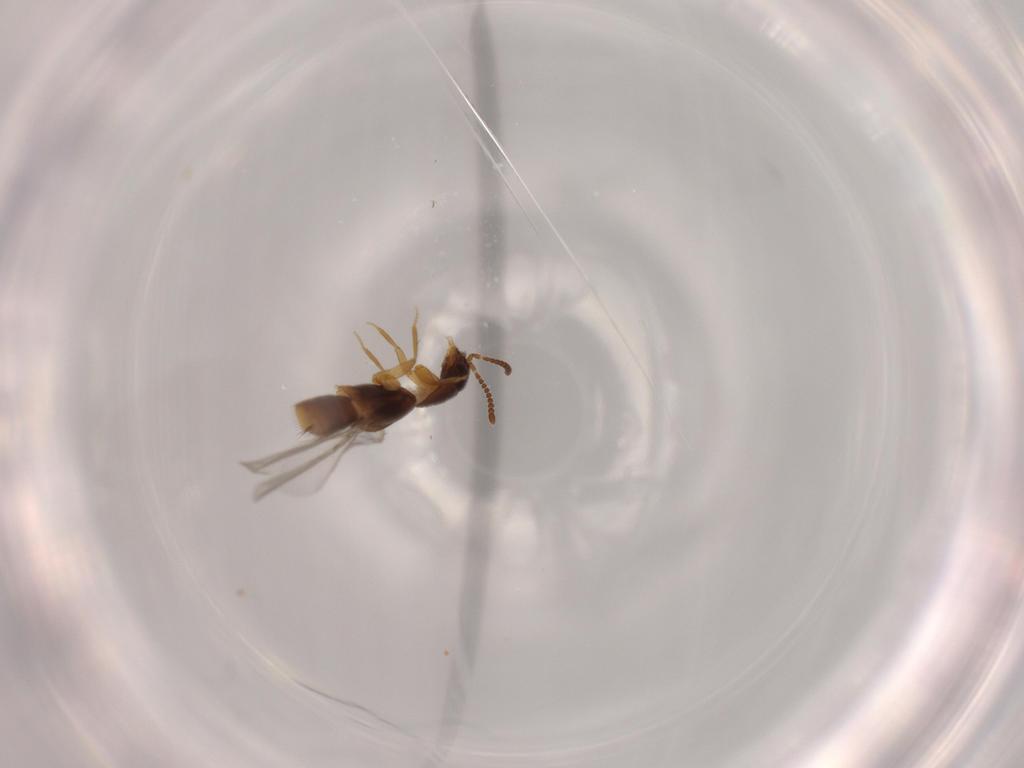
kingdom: Animalia
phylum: Arthropoda
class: Insecta
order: Coleoptera
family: Staphylinidae
